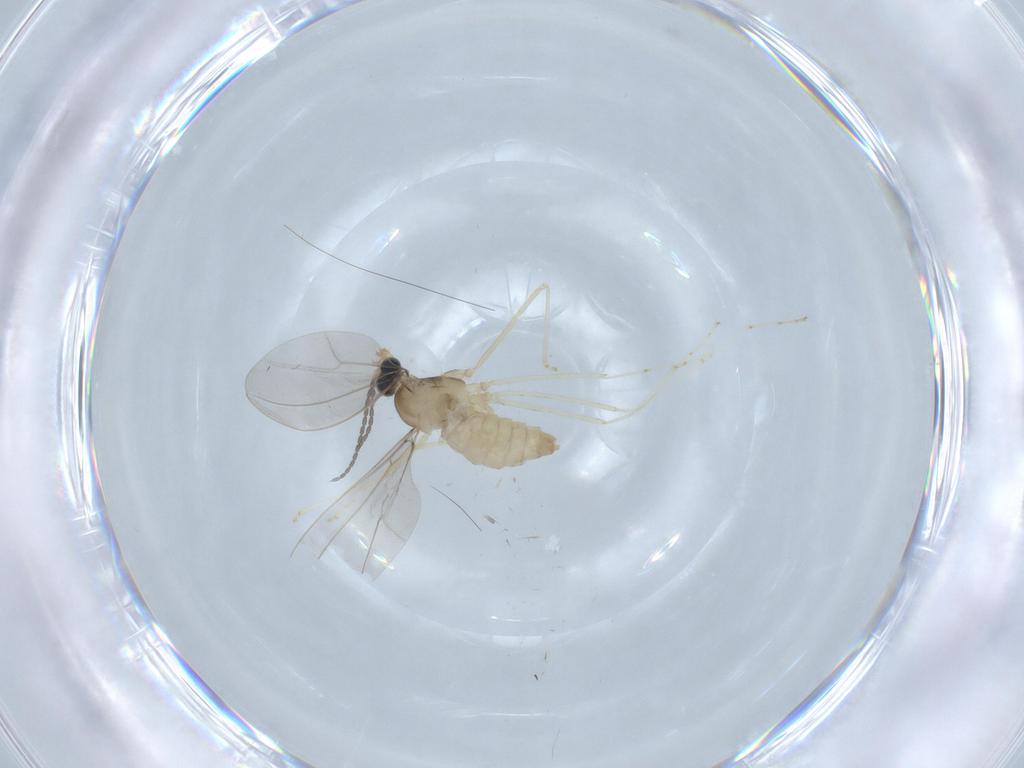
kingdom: Animalia
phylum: Arthropoda
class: Insecta
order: Diptera
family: Cecidomyiidae
